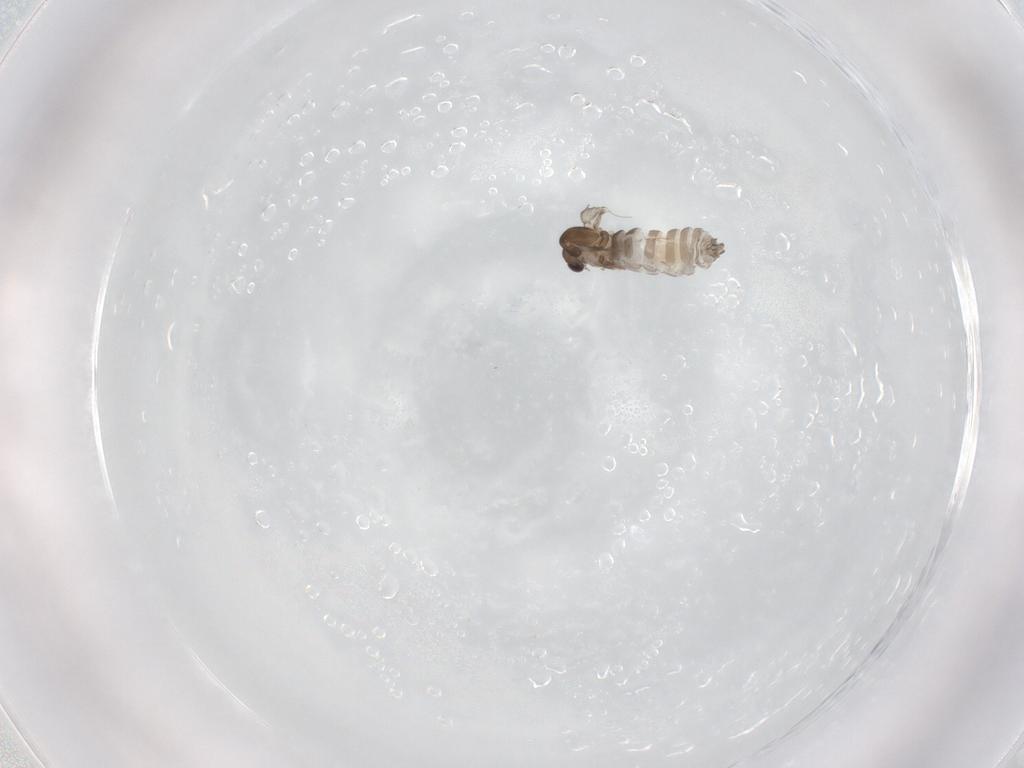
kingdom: Animalia
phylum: Arthropoda
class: Insecta
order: Diptera
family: Psychodidae
